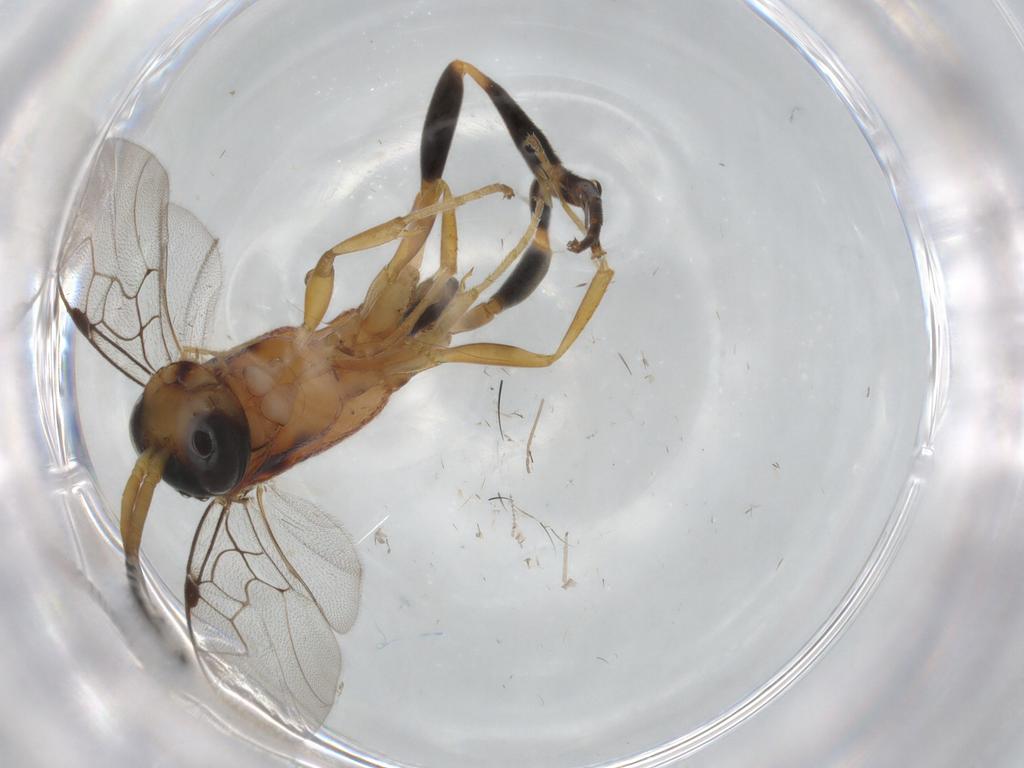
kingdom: Animalia
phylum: Arthropoda
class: Insecta
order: Hymenoptera
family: Evaniidae
